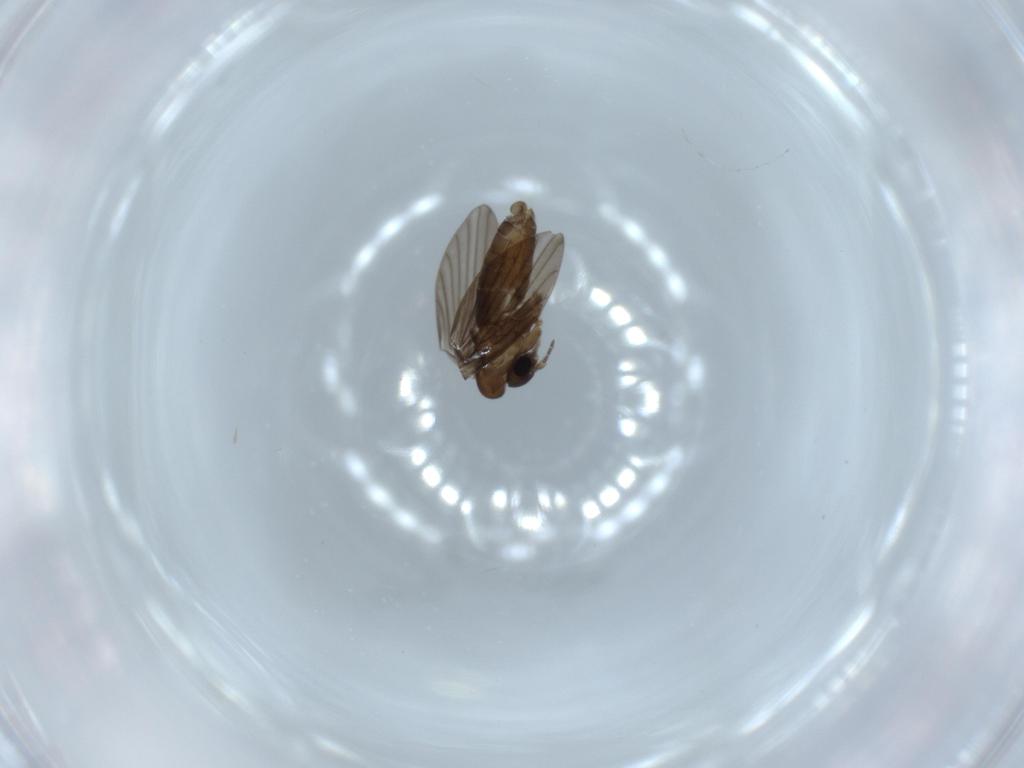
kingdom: Animalia
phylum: Arthropoda
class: Insecta
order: Diptera
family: Psychodidae
